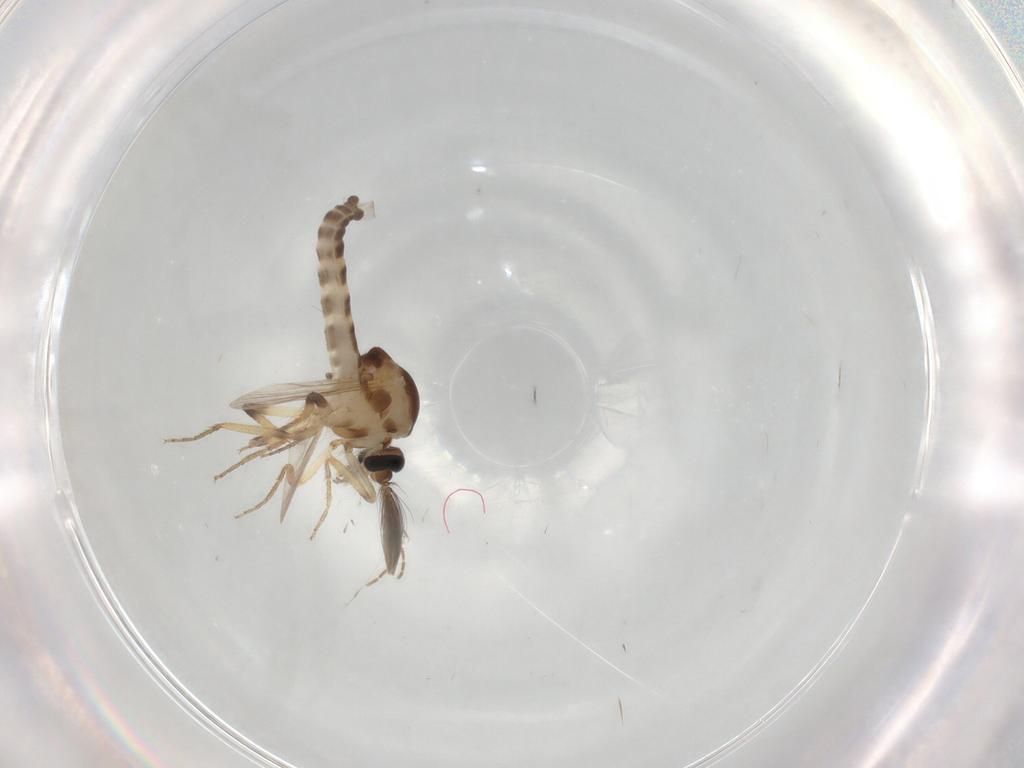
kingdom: Animalia
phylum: Arthropoda
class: Insecta
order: Diptera
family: Ceratopogonidae
